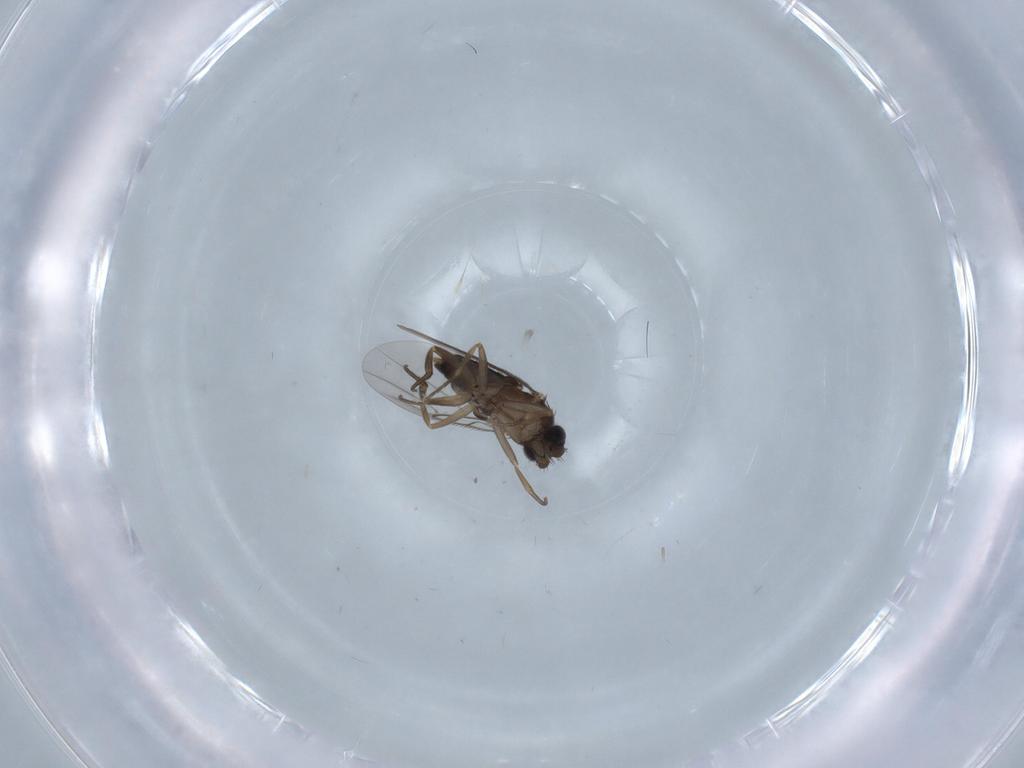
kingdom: Animalia
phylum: Arthropoda
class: Insecta
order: Diptera
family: Phoridae
